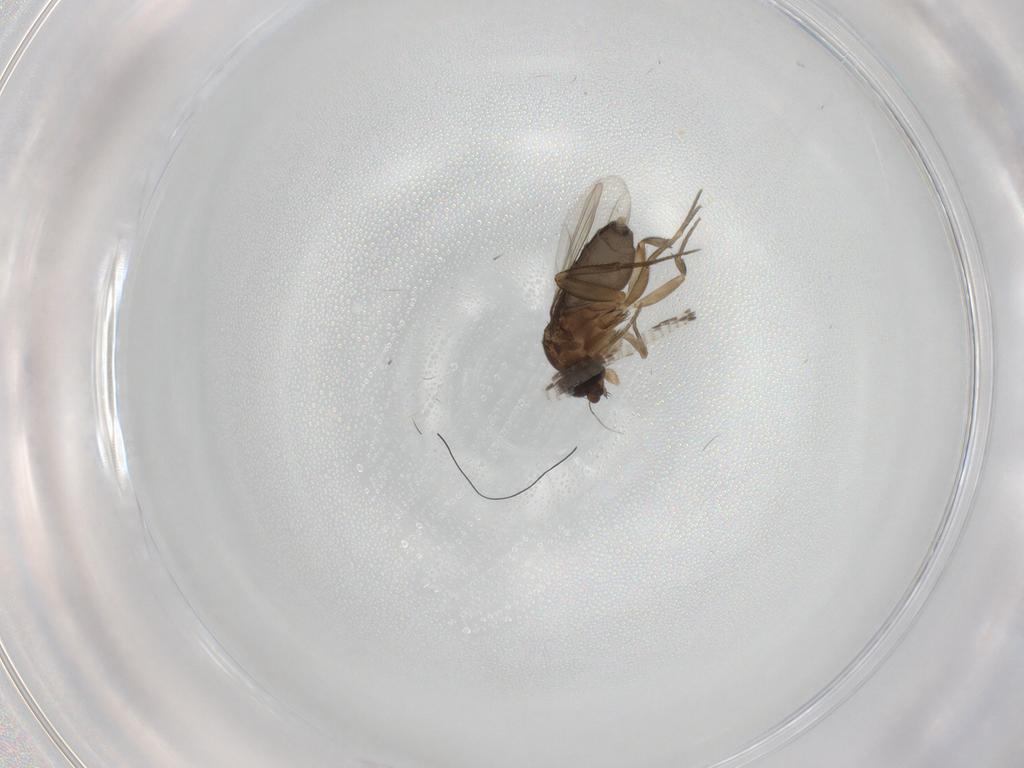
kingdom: Animalia
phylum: Arthropoda
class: Insecta
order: Diptera
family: Phoridae
